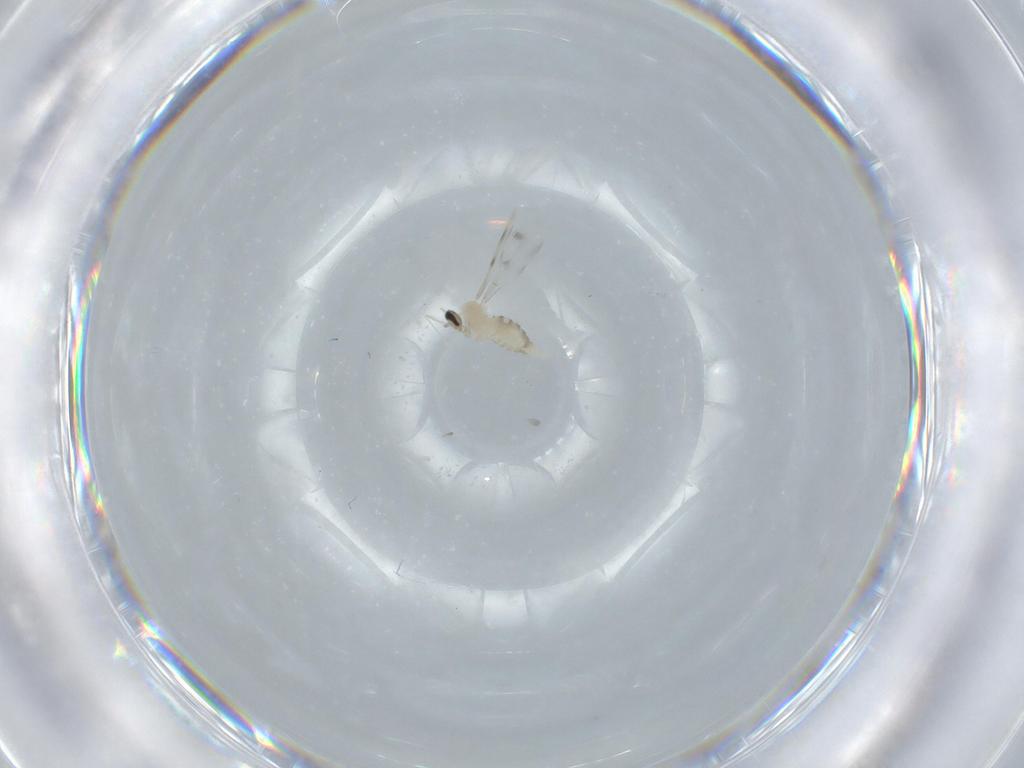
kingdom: Animalia
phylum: Arthropoda
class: Insecta
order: Diptera
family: Cecidomyiidae
